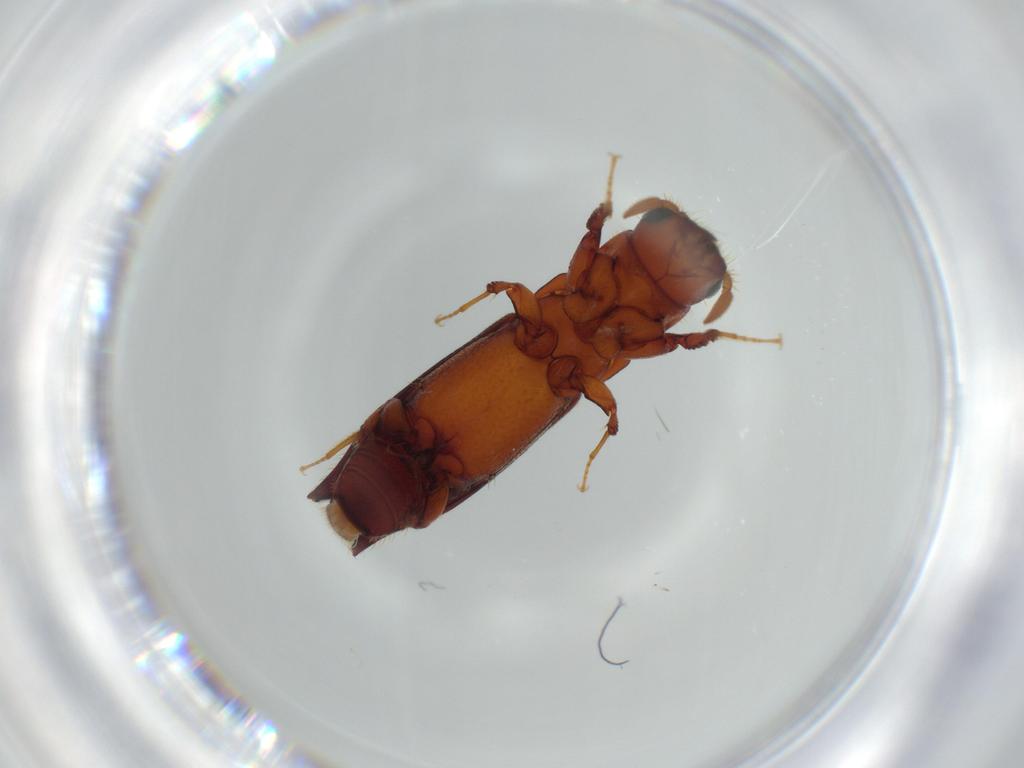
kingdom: Animalia
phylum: Arthropoda
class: Insecta
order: Coleoptera
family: Curculionidae
